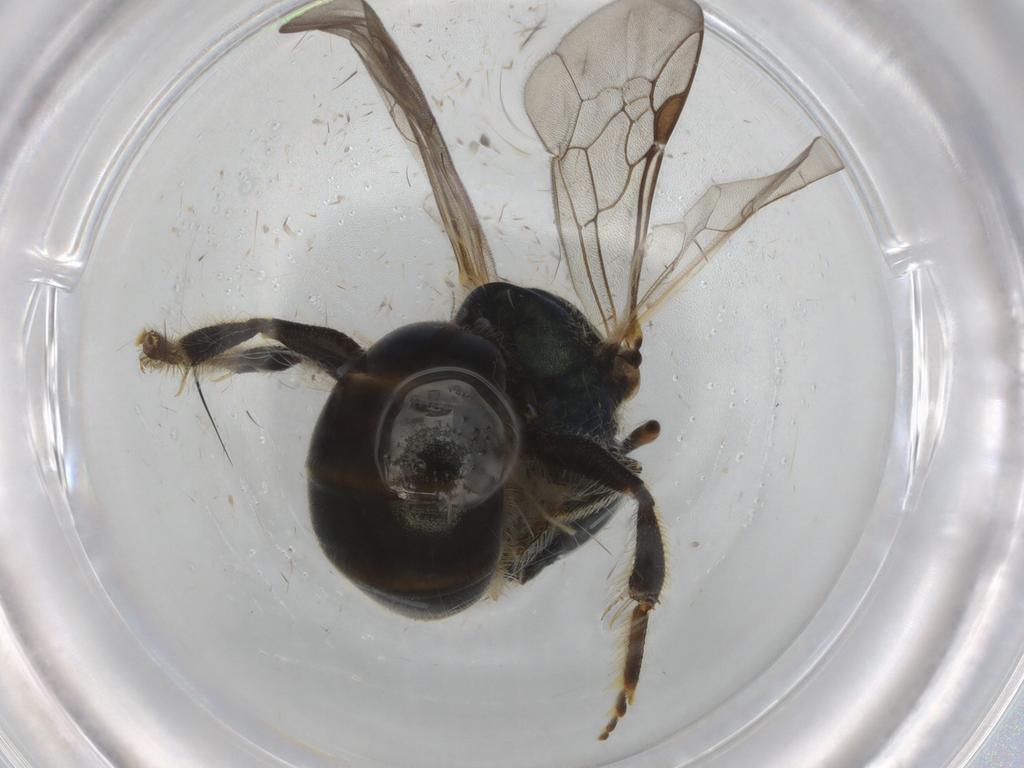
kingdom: Animalia
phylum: Arthropoda
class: Insecta
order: Hymenoptera
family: Halictidae
